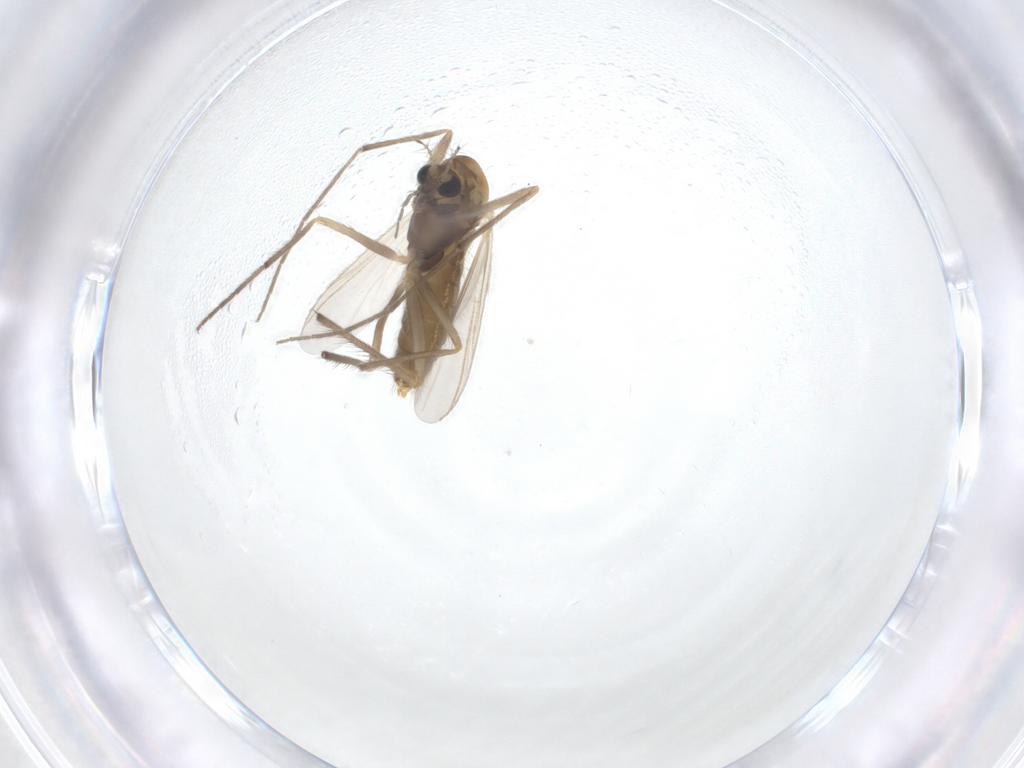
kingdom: Animalia
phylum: Arthropoda
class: Insecta
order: Diptera
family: Chironomidae
